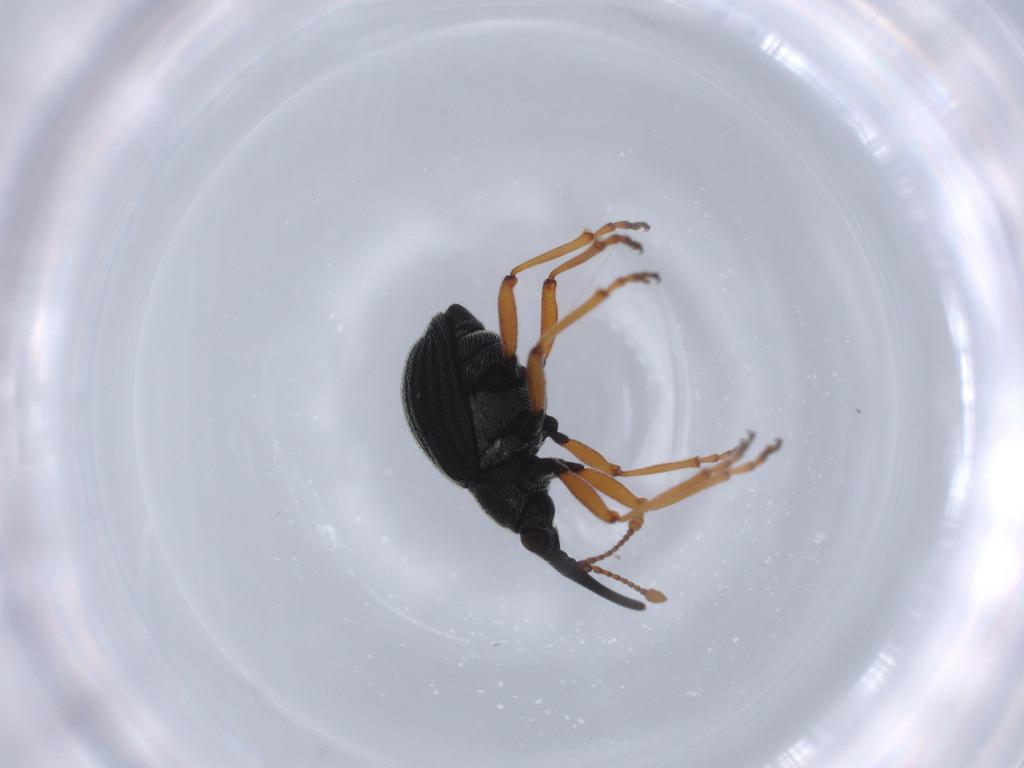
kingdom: Animalia
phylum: Arthropoda
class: Insecta
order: Coleoptera
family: Brentidae
